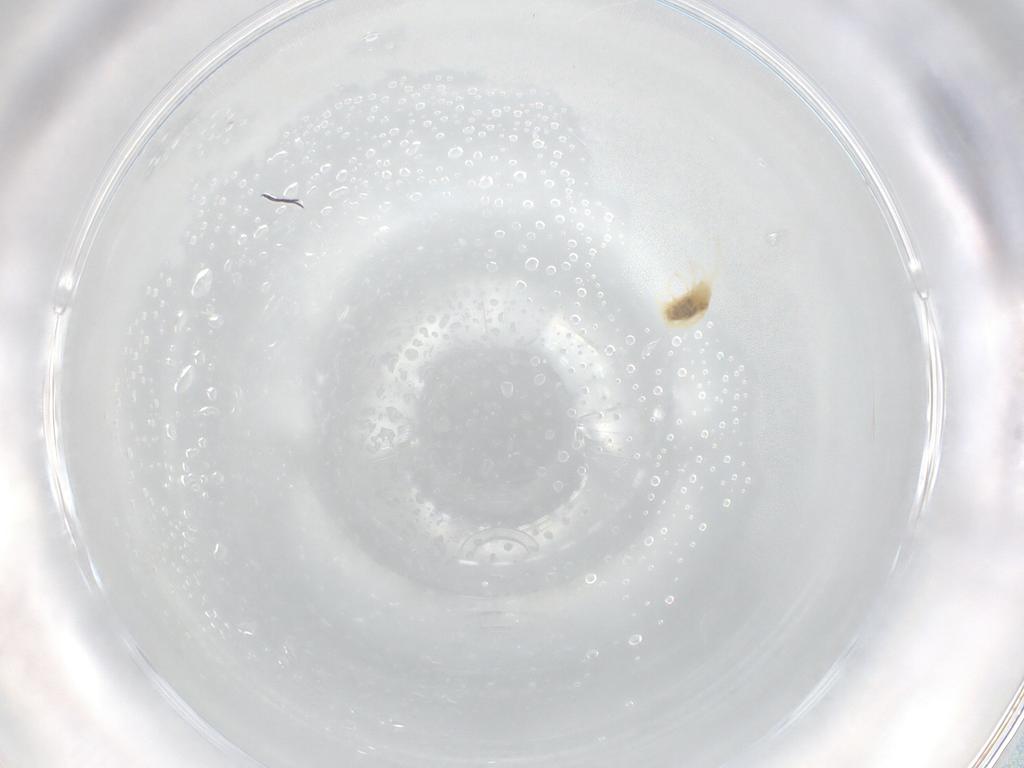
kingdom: Animalia
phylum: Arthropoda
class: Arachnida
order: Trombidiformes
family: Tetranychidae
